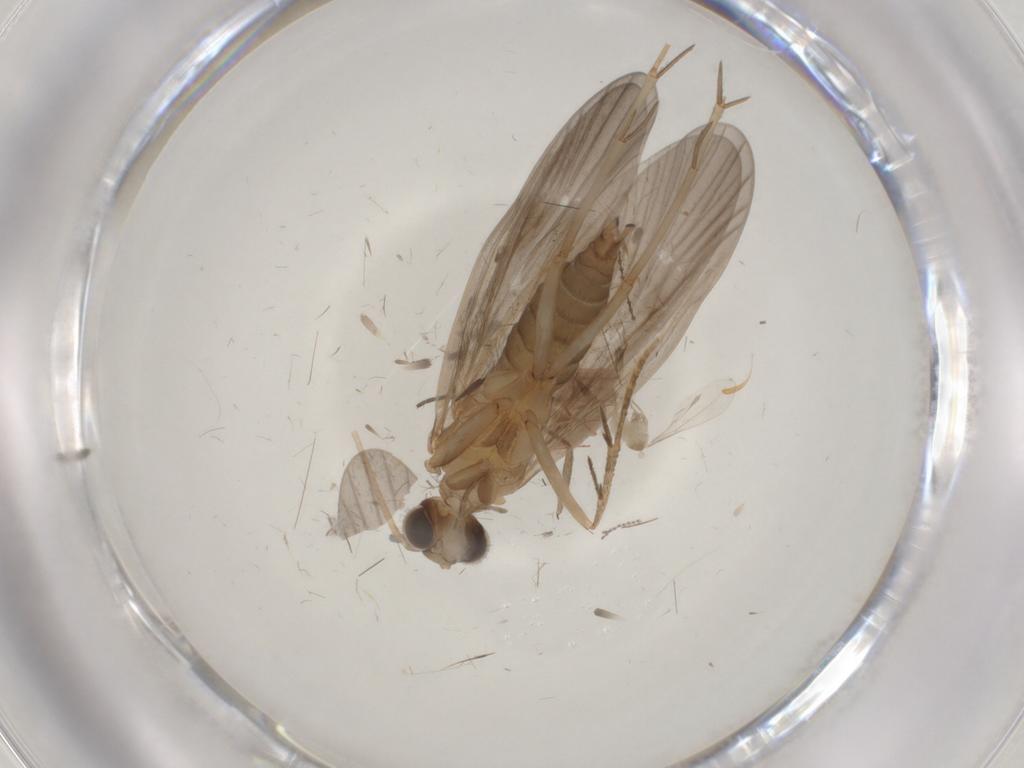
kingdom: Animalia
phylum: Arthropoda
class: Insecta
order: Trichoptera
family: Philopotamidae
